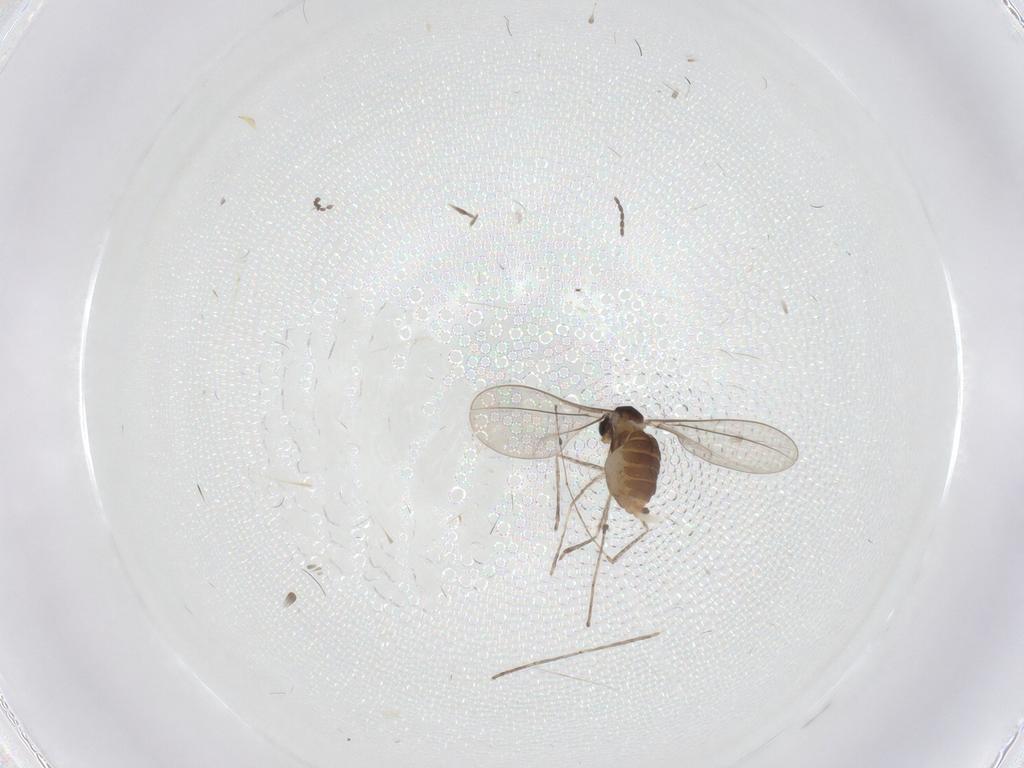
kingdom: Animalia
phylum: Arthropoda
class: Insecta
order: Diptera
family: Cecidomyiidae
